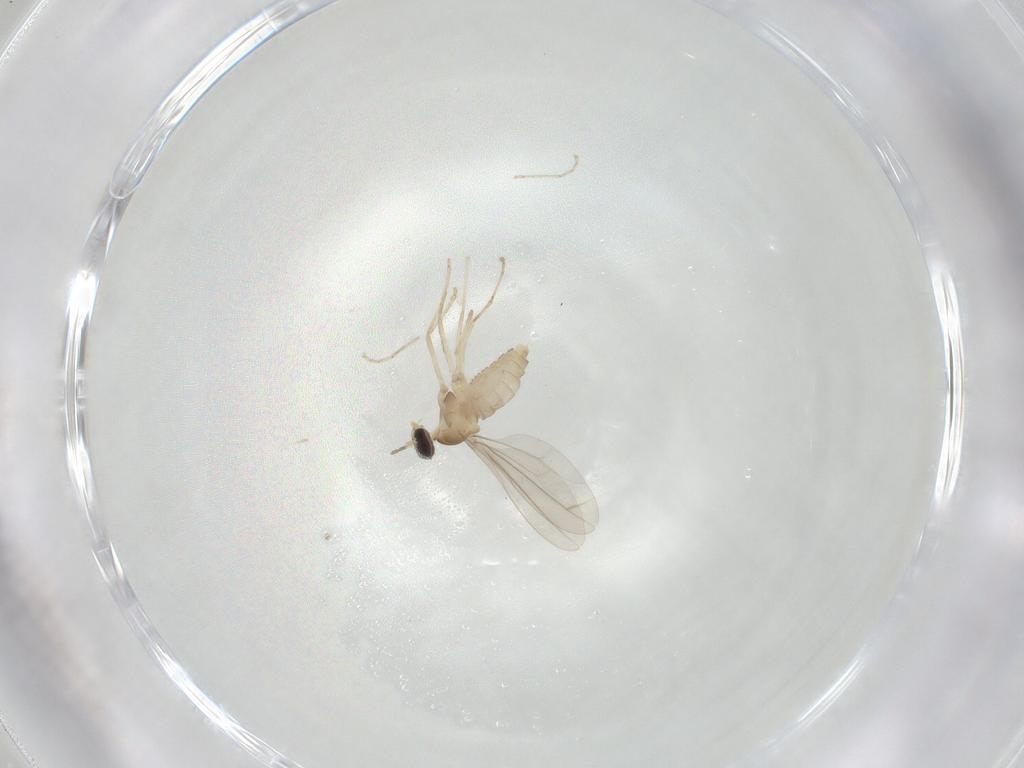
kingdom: Animalia
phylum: Arthropoda
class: Insecta
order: Diptera
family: Cecidomyiidae
